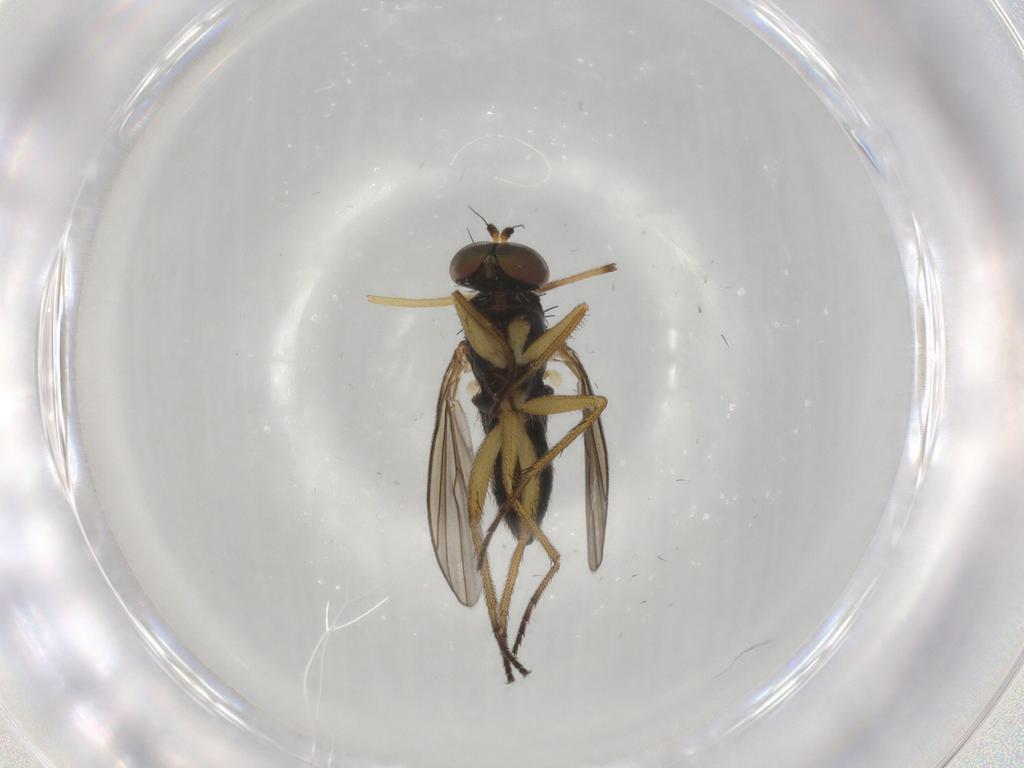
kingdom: Animalia
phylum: Arthropoda
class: Insecta
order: Diptera
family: Dolichopodidae
